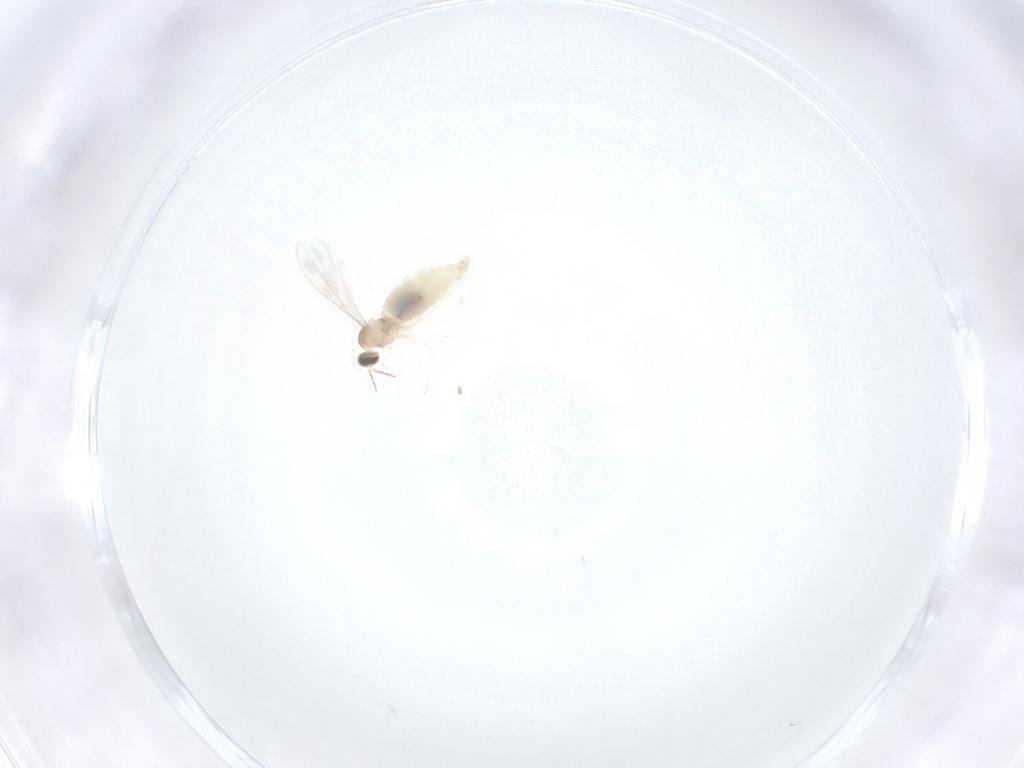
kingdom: Animalia
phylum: Arthropoda
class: Insecta
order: Diptera
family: Cecidomyiidae
